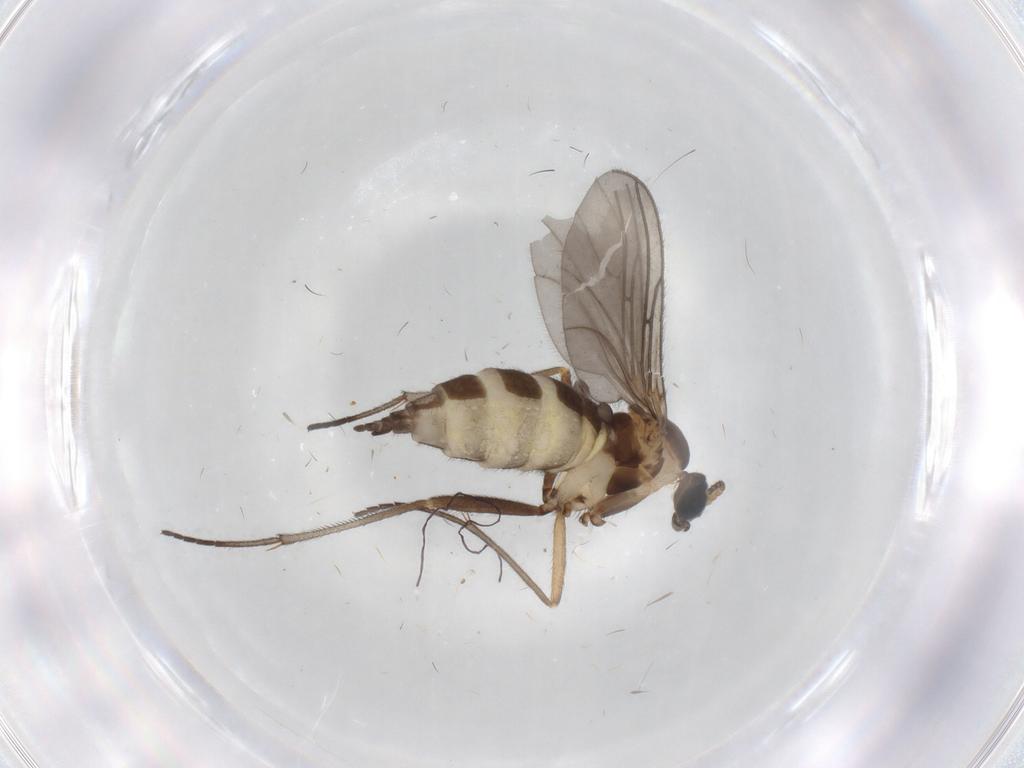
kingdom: Animalia
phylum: Arthropoda
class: Insecta
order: Diptera
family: Sciaridae
